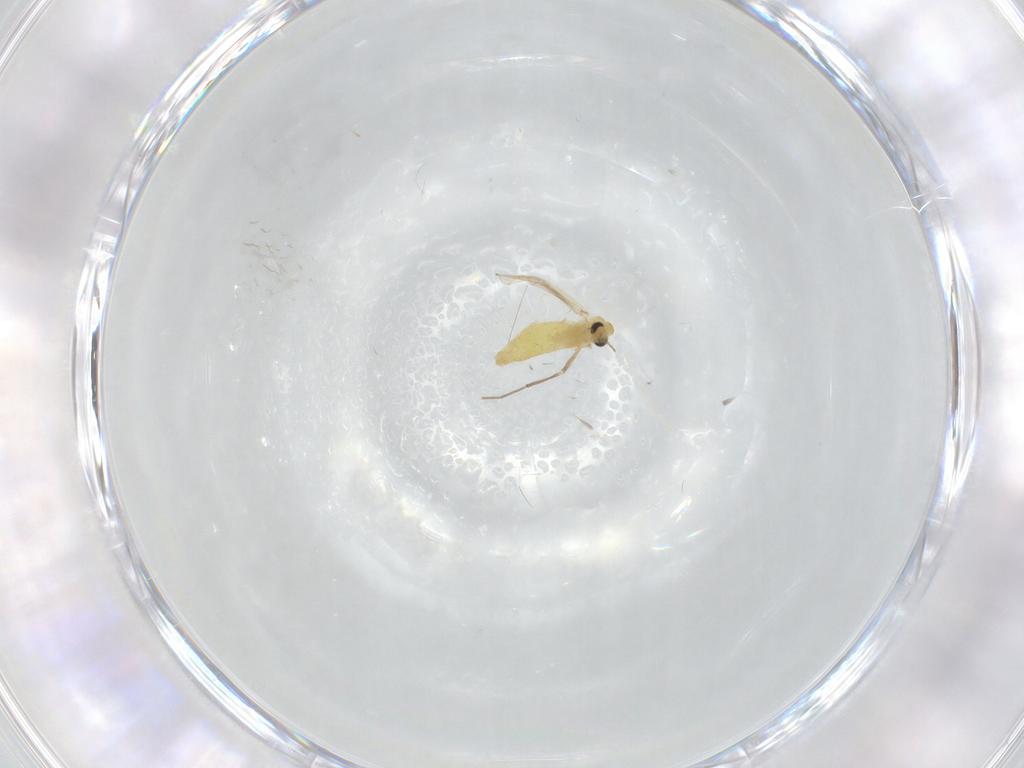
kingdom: Animalia
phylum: Arthropoda
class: Insecta
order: Diptera
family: Chironomidae
